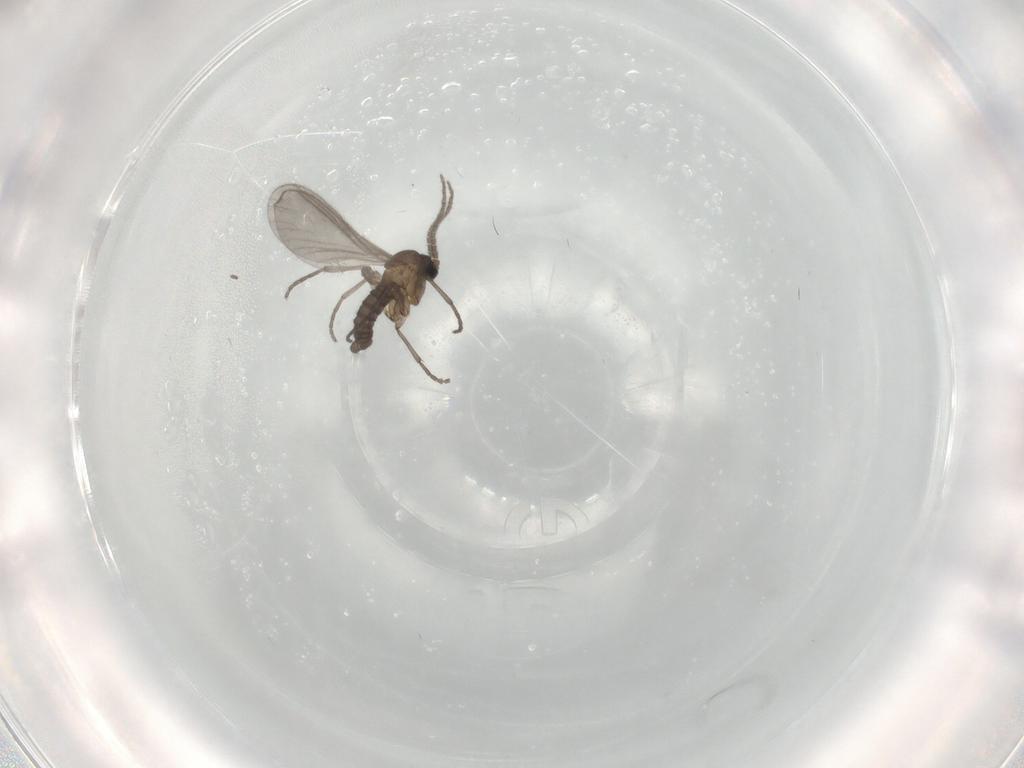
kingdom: Animalia
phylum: Arthropoda
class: Insecta
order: Diptera
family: Sciaridae
